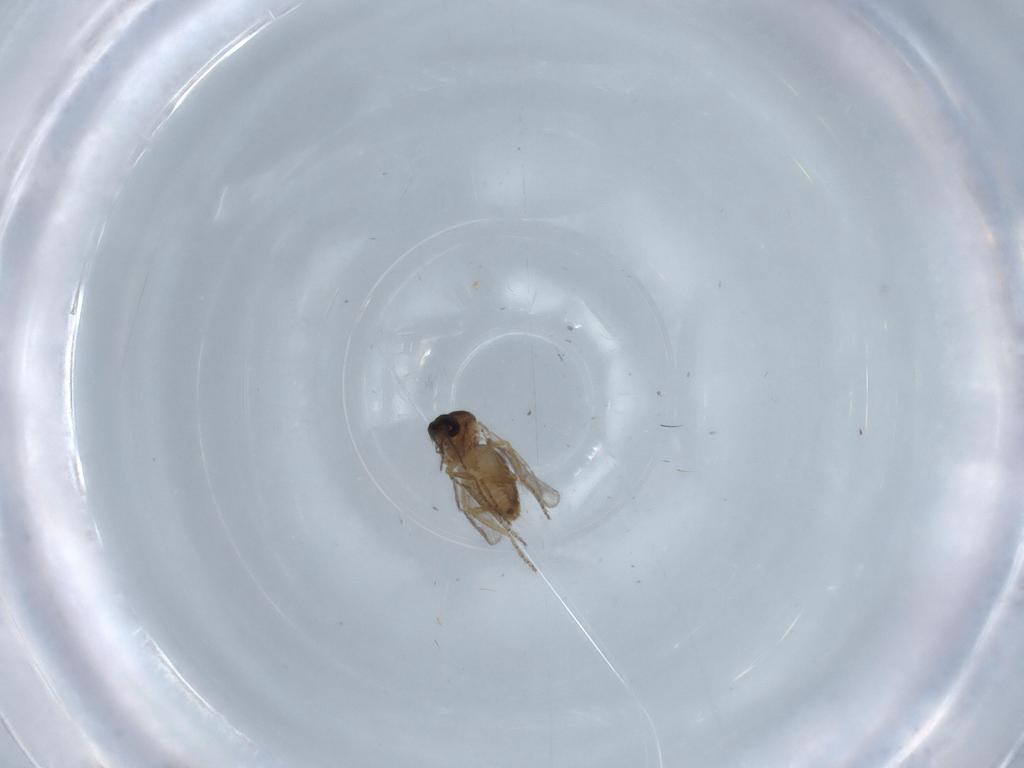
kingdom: Animalia
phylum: Arthropoda
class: Insecta
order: Diptera
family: Ceratopogonidae
